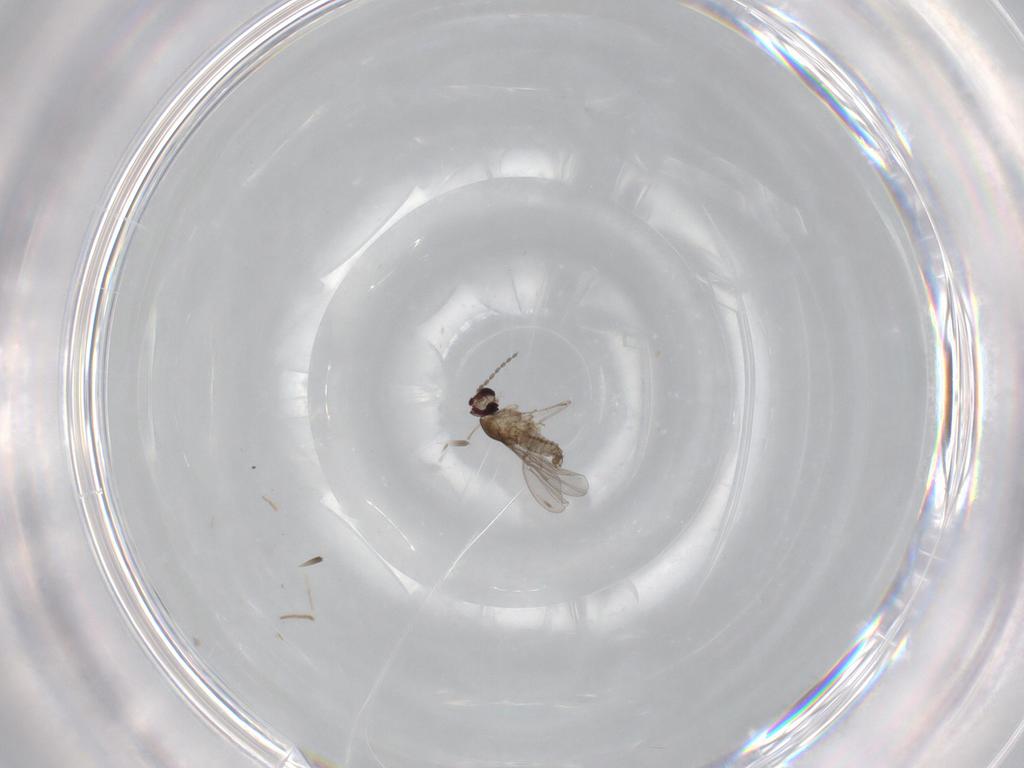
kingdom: Animalia
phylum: Arthropoda
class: Insecta
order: Diptera
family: Cecidomyiidae
